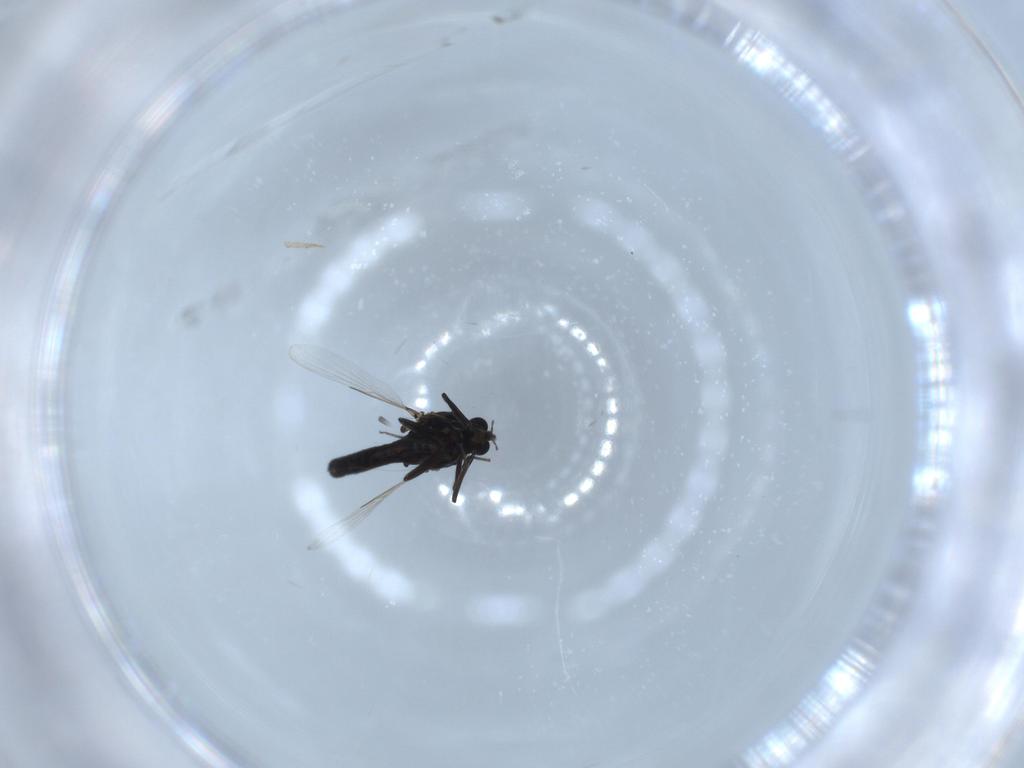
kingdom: Animalia
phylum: Arthropoda
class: Insecta
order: Diptera
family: Ceratopogonidae
